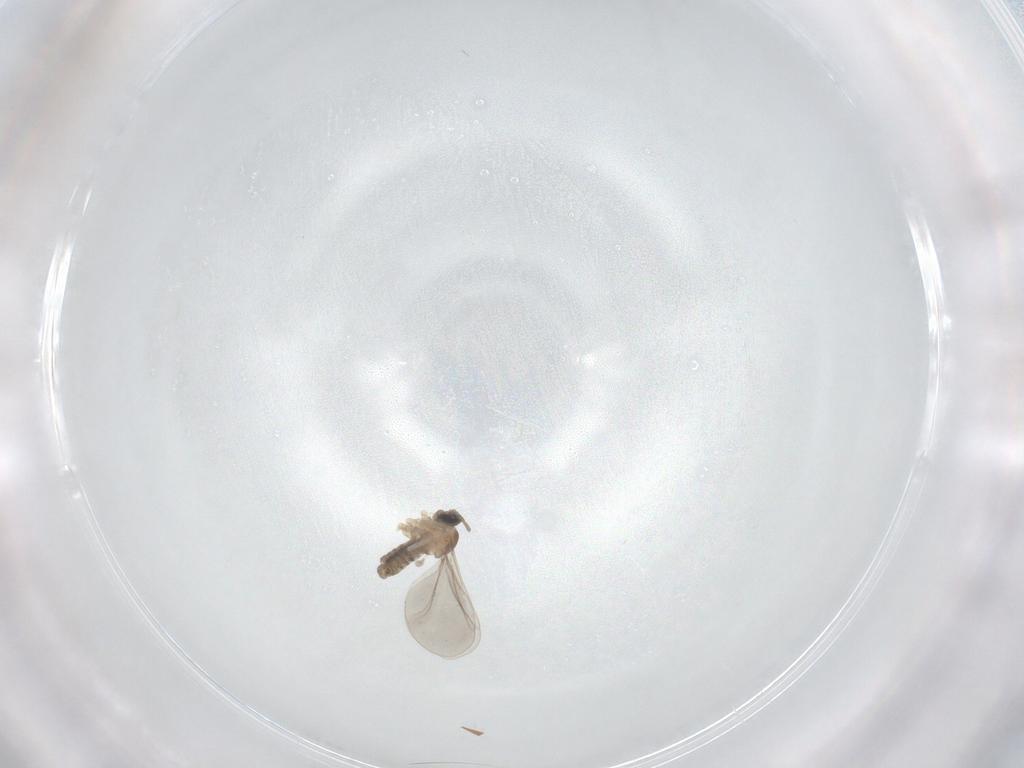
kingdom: Animalia
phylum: Arthropoda
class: Insecta
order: Diptera
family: Cecidomyiidae
